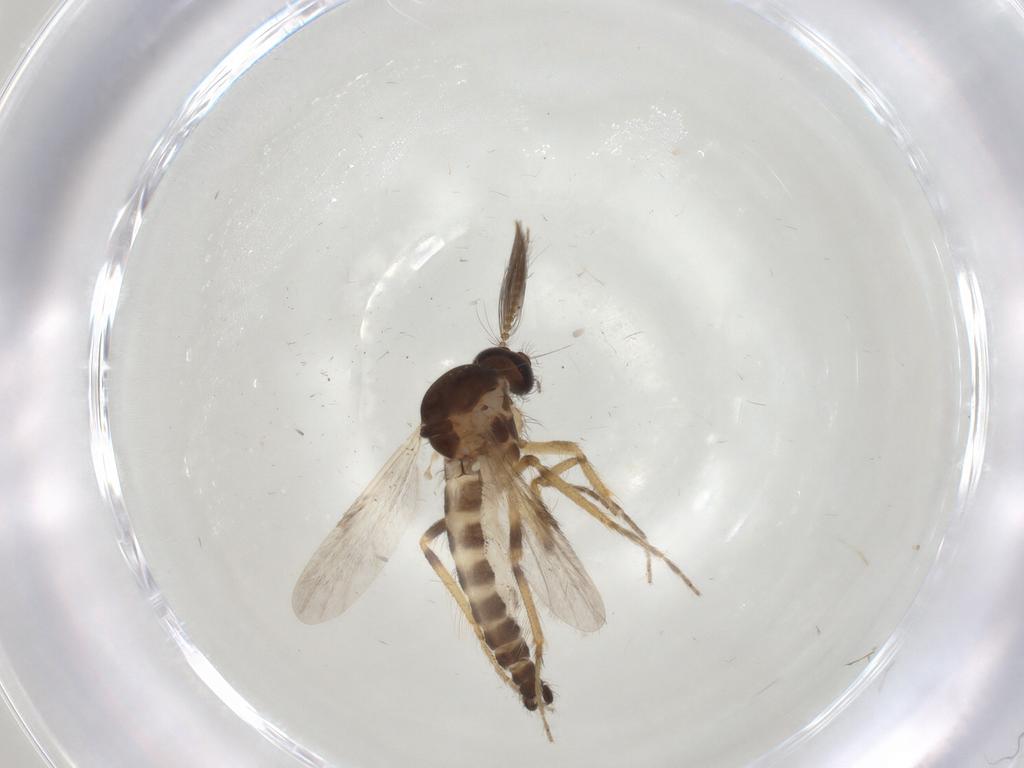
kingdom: Animalia
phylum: Arthropoda
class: Insecta
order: Diptera
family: Ceratopogonidae
